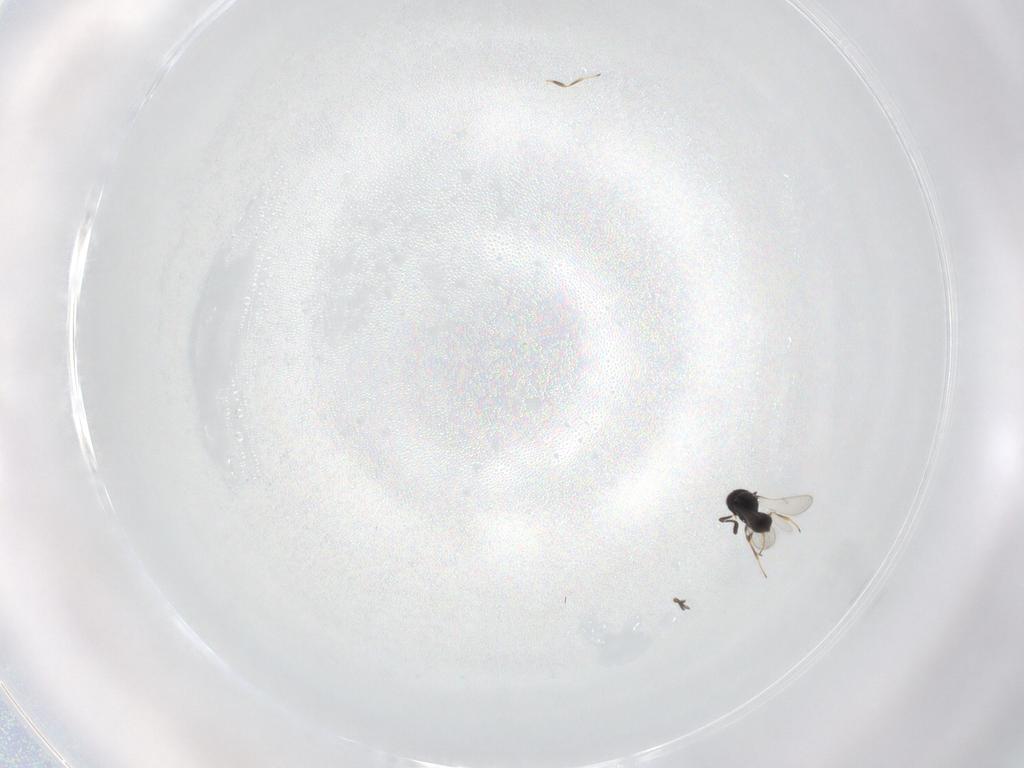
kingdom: Animalia
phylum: Arthropoda
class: Insecta
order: Hymenoptera
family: Scelionidae
